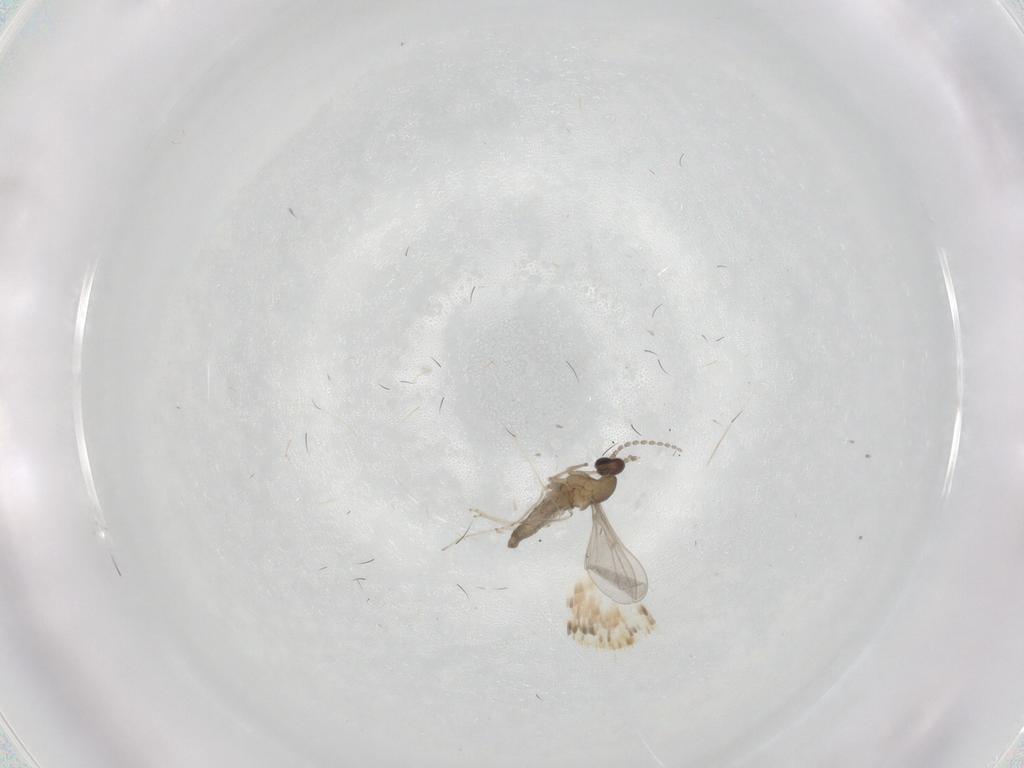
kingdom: Animalia
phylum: Arthropoda
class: Insecta
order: Diptera
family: Cecidomyiidae
